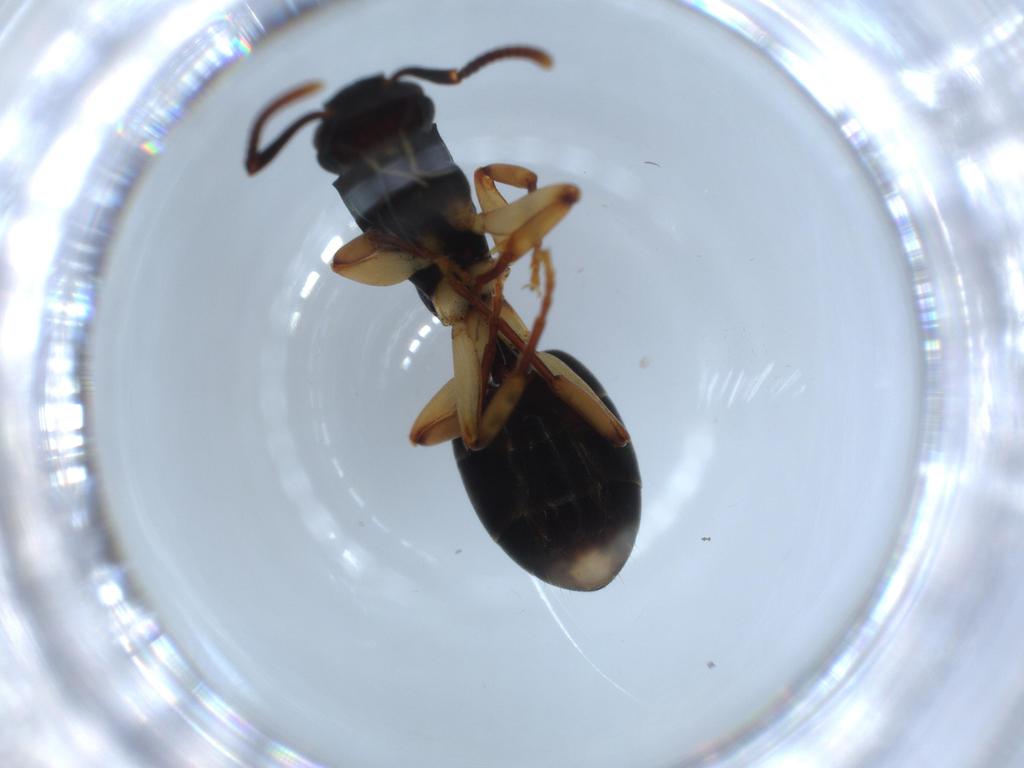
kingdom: Animalia
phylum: Arthropoda
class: Insecta
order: Hymenoptera
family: Formicidae
